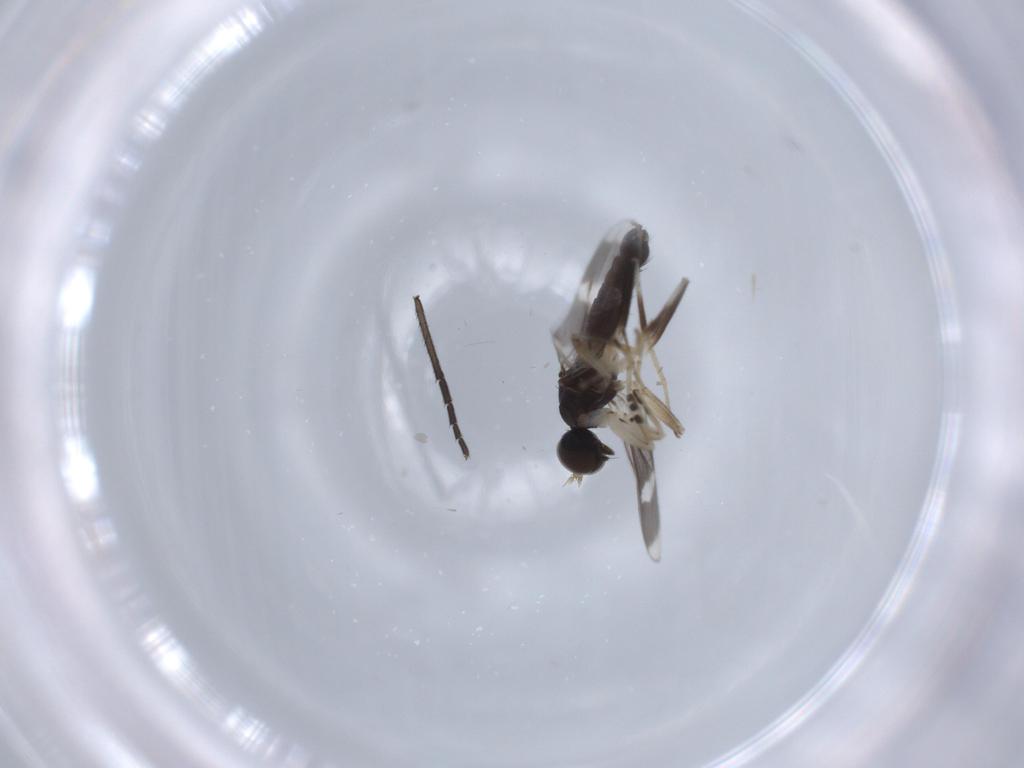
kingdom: Animalia
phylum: Arthropoda
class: Insecta
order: Diptera
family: Hybotidae
